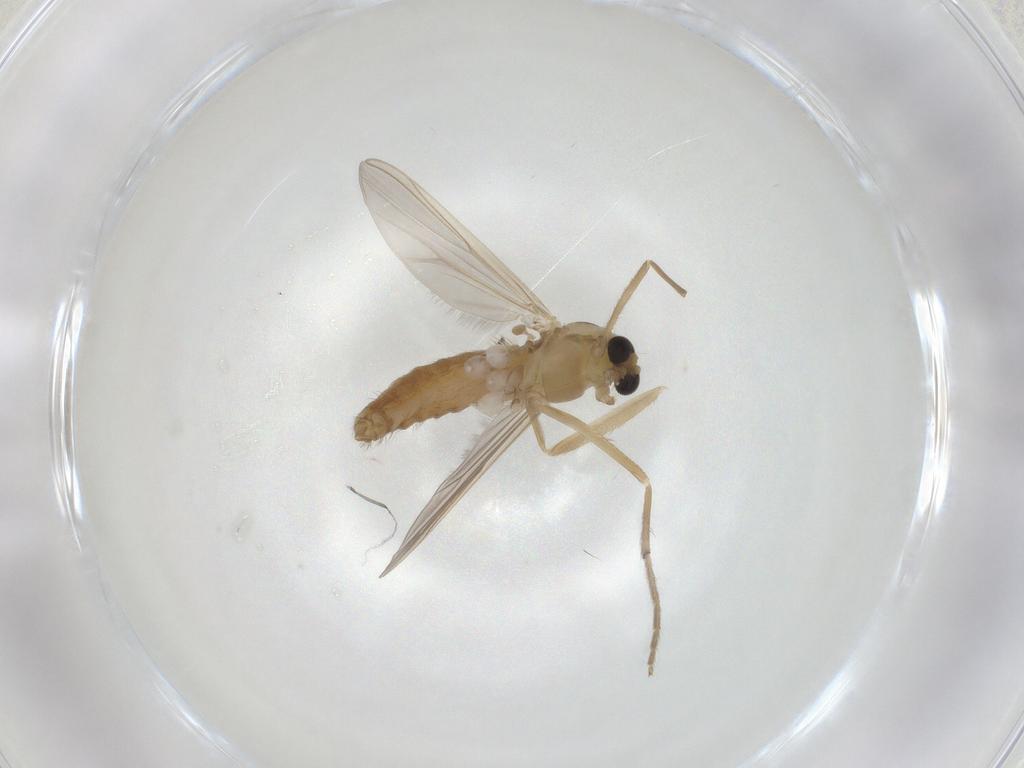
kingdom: Animalia
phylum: Arthropoda
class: Insecta
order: Diptera
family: Chironomidae
